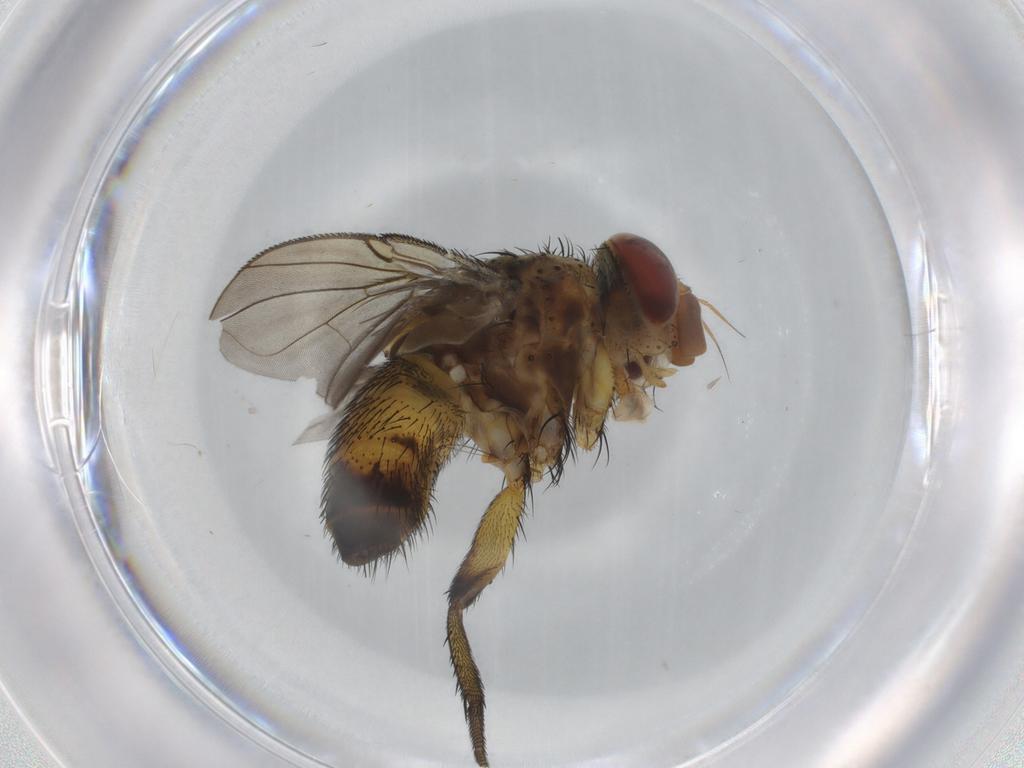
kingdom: Animalia
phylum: Arthropoda
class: Insecta
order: Diptera
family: Tachinidae
